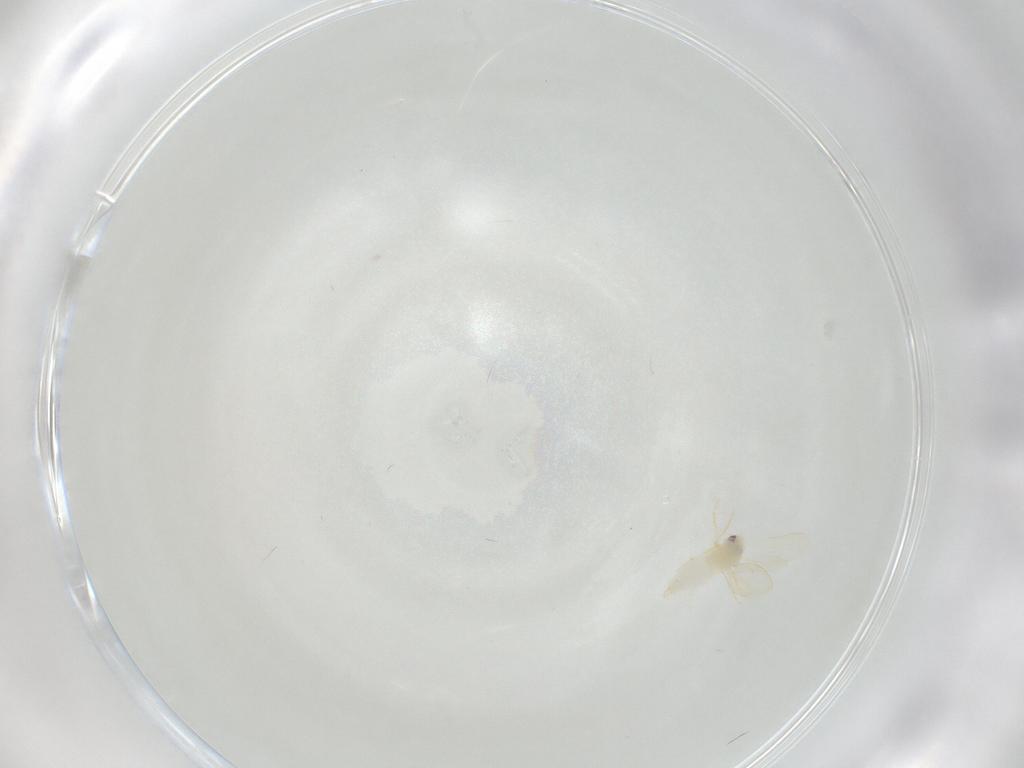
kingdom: Animalia
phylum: Arthropoda
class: Insecta
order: Hemiptera
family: Aleyrodidae
